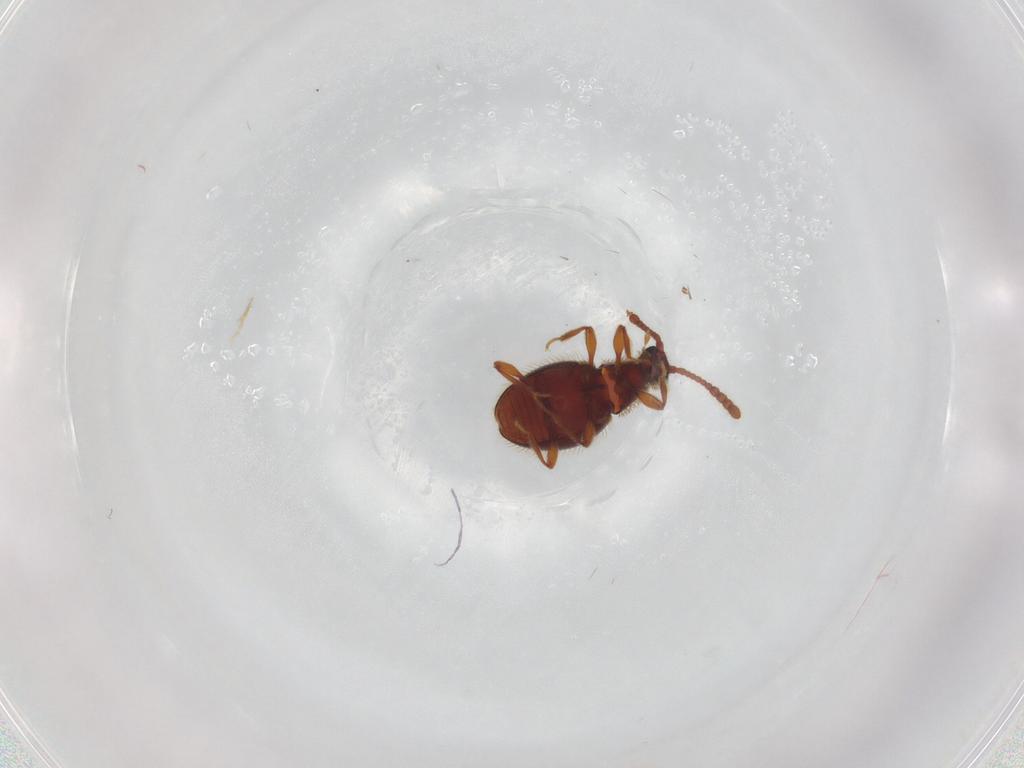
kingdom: Animalia
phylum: Arthropoda
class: Insecta
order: Coleoptera
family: Staphylinidae
